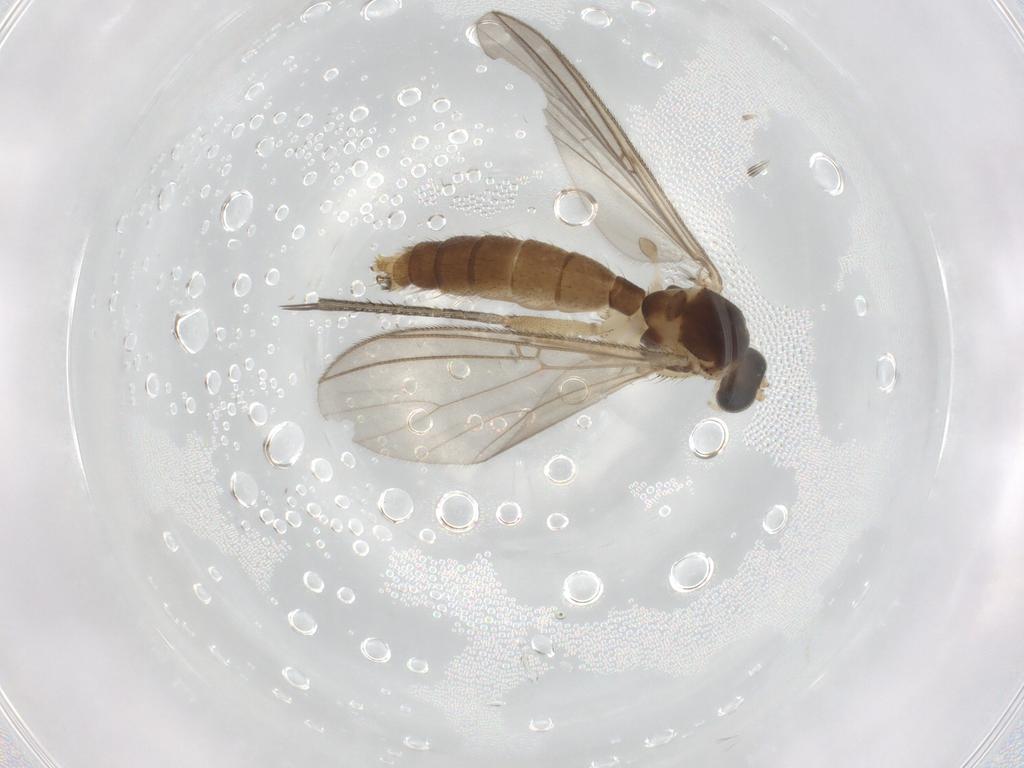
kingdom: Animalia
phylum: Arthropoda
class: Insecta
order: Diptera
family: Mycetophilidae
